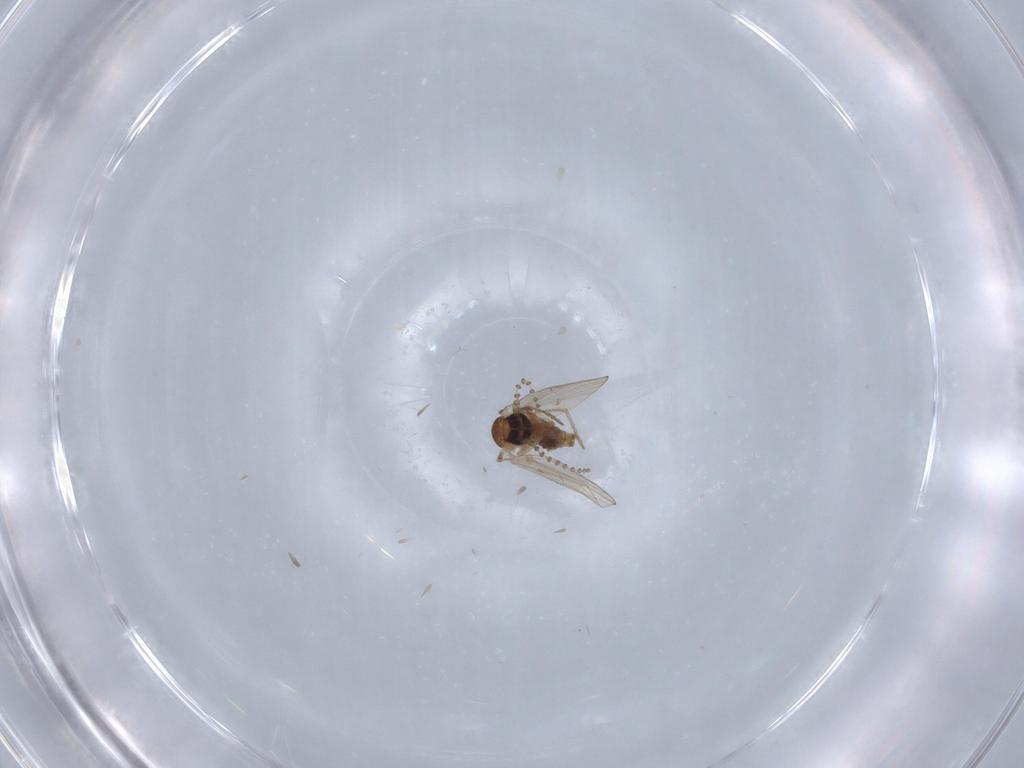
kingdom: Animalia
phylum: Arthropoda
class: Insecta
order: Diptera
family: Psychodidae
